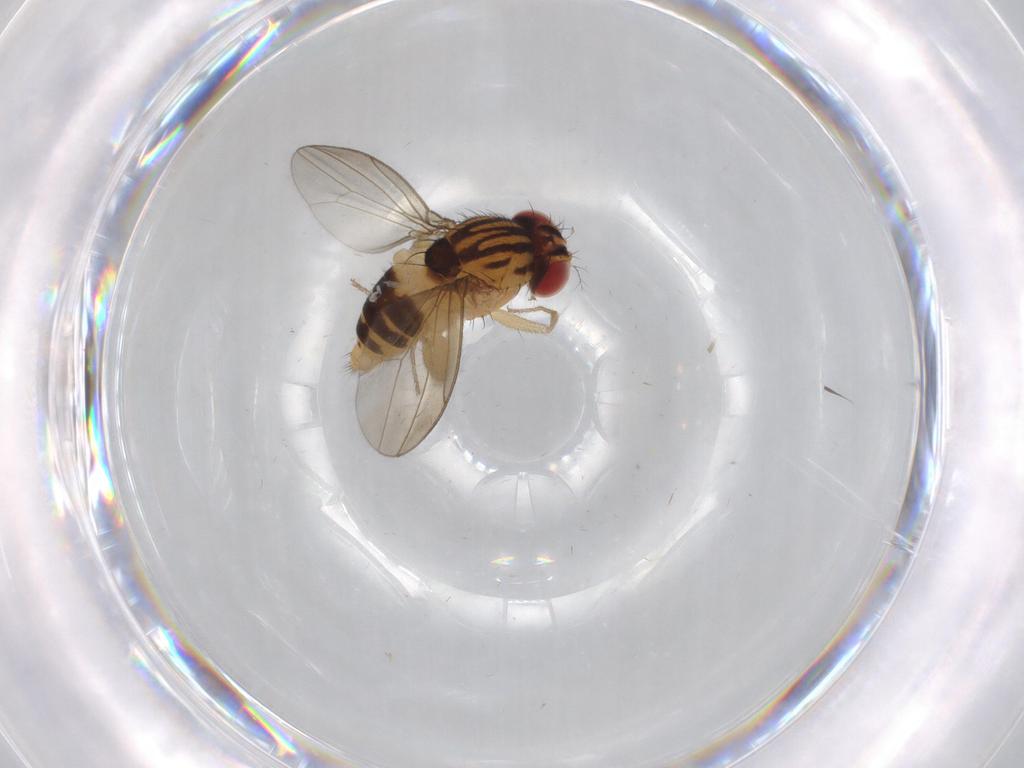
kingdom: Animalia
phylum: Arthropoda
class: Insecta
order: Diptera
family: Drosophilidae
